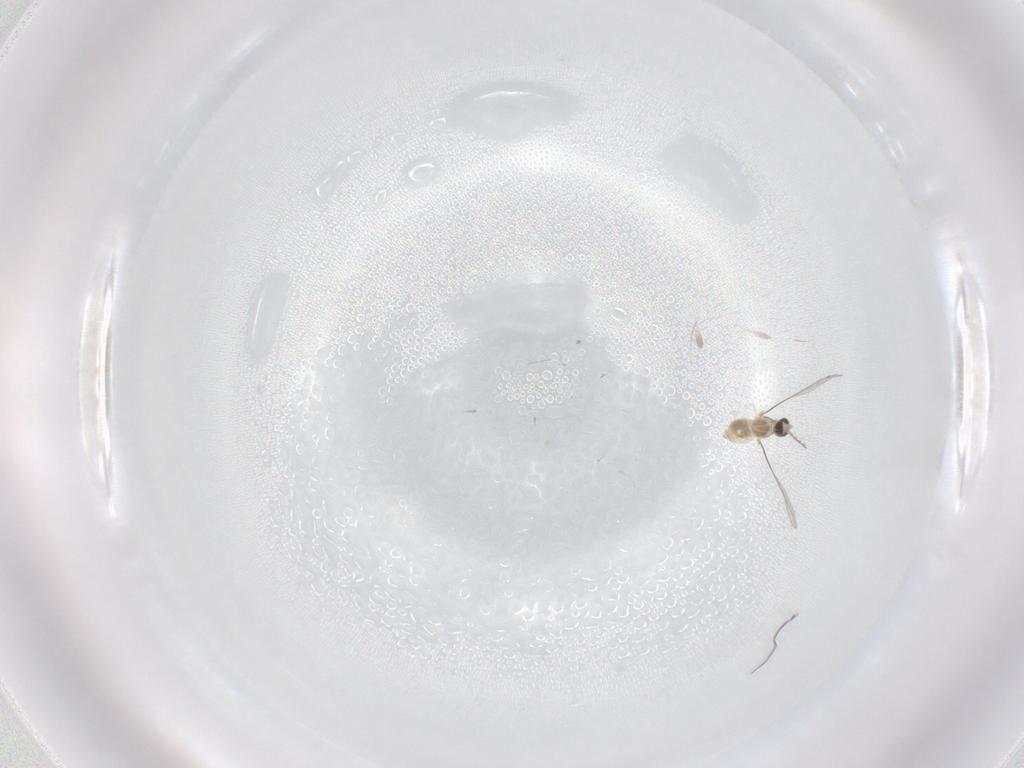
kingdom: Animalia
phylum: Arthropoda
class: Insecta
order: Diptera
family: Cecidomyiidae
